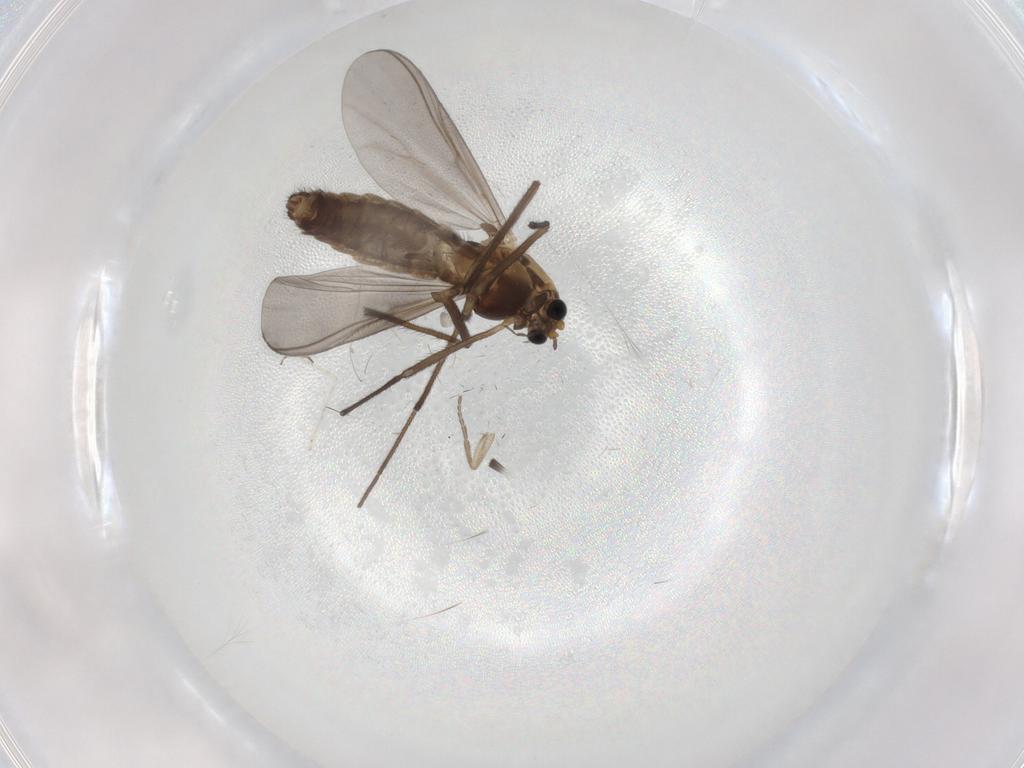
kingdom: Animalia
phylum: Arthropoda
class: Insecta
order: Diptera
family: Chironomidae
